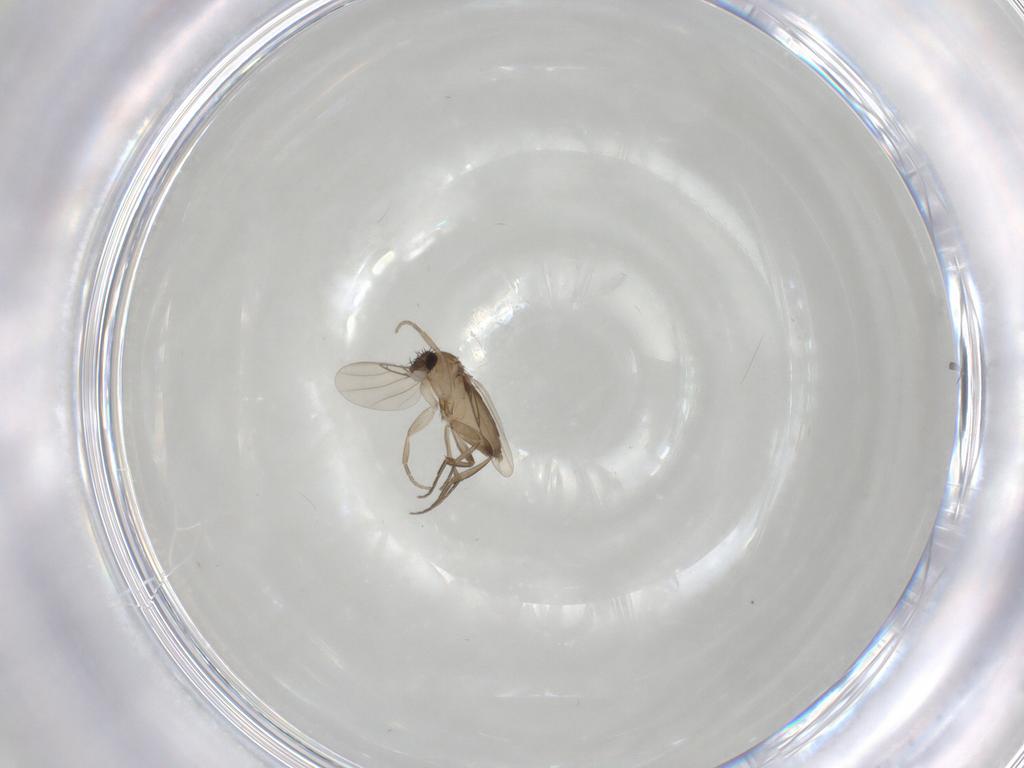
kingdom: Animalia
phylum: Arthropoda
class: Insecta
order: Diptera
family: Phoridae
